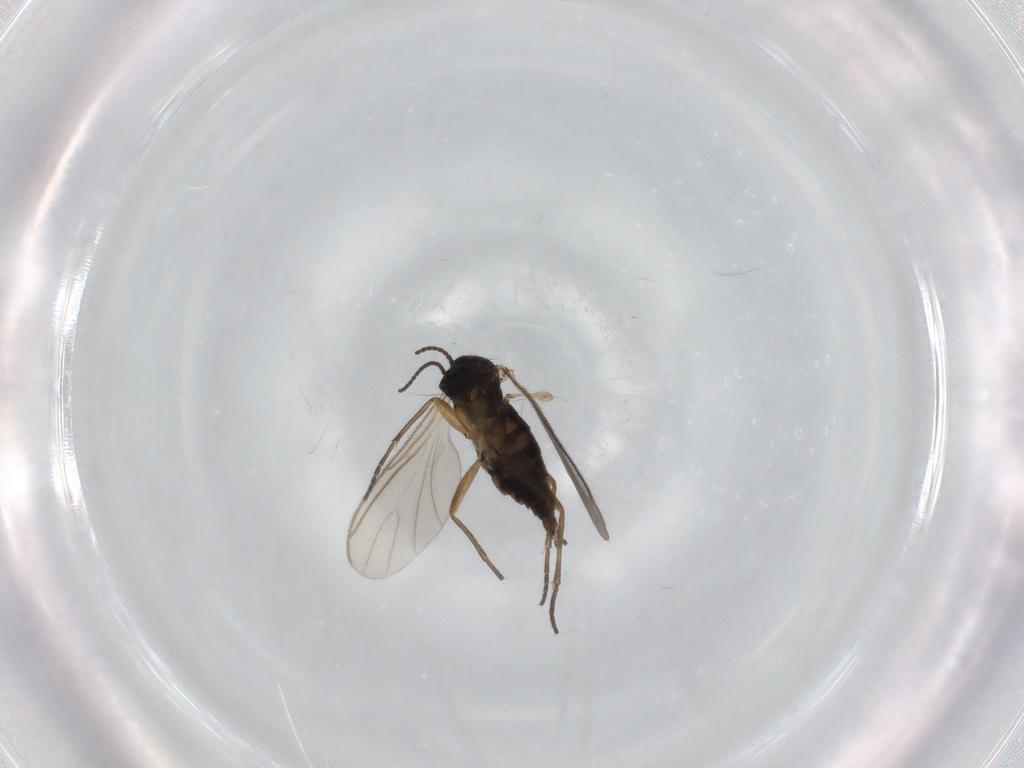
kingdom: Animalia
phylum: Arthropoda
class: Insecta
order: Diptera
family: Sciaridae
